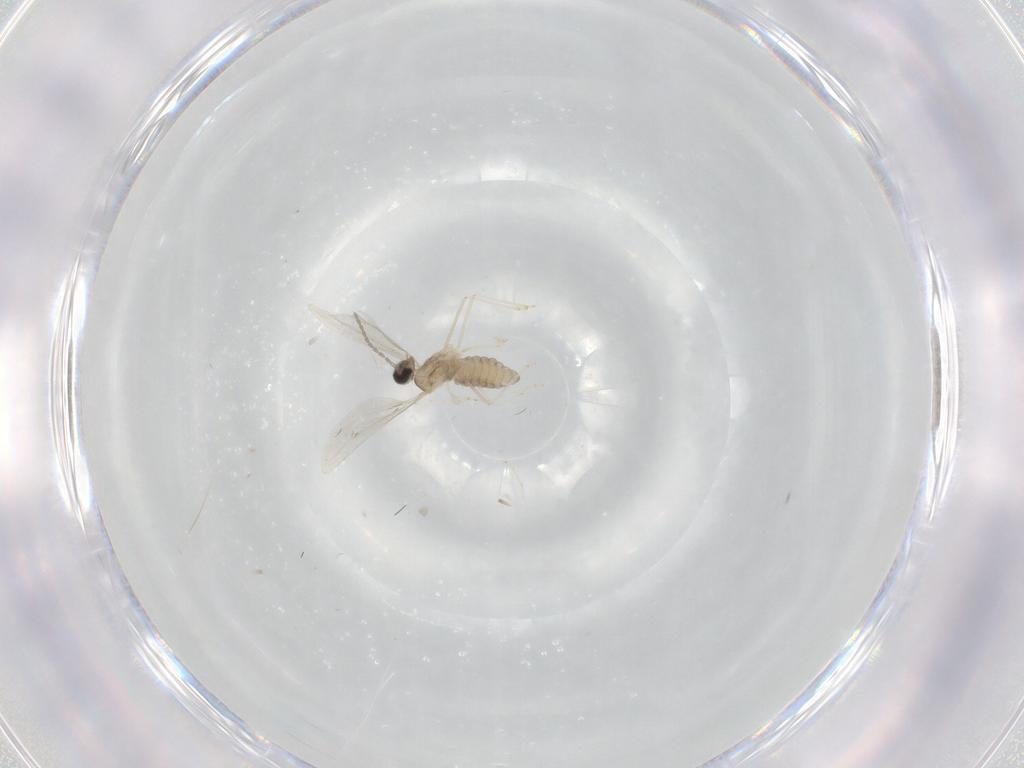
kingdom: Animalia
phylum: Arthropoda
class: Insecta
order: Diptera
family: Cecidomyiidae
